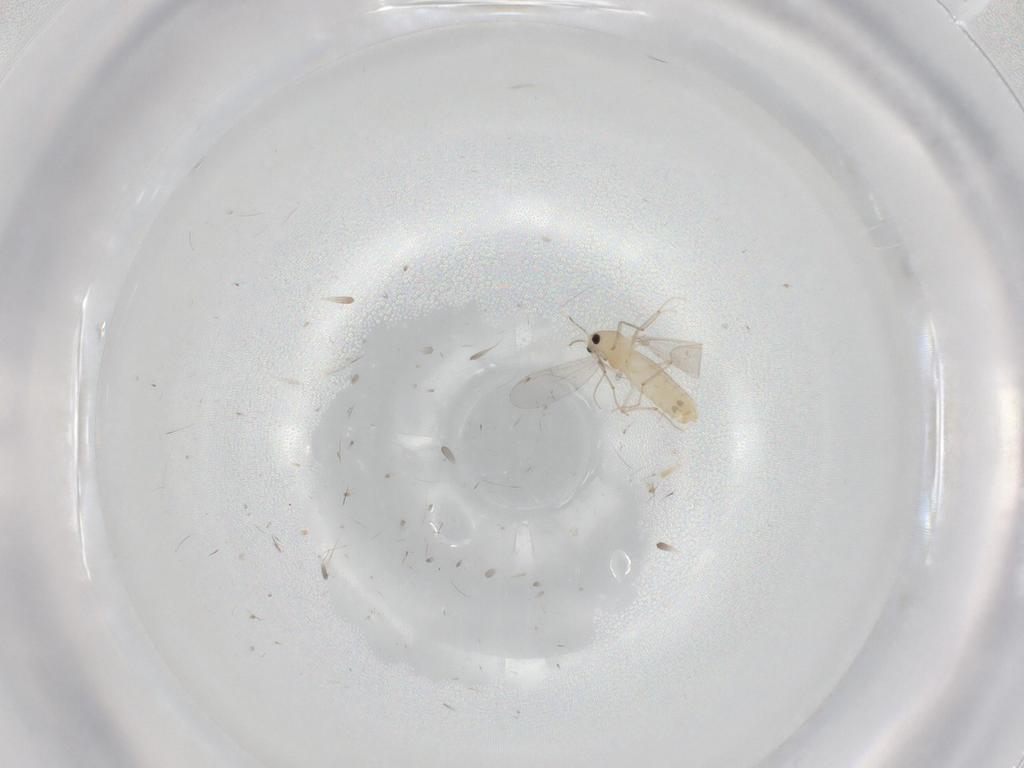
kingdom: Animalia
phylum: Arthropoda
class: Insecta
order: Diptera
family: Chironomidae
